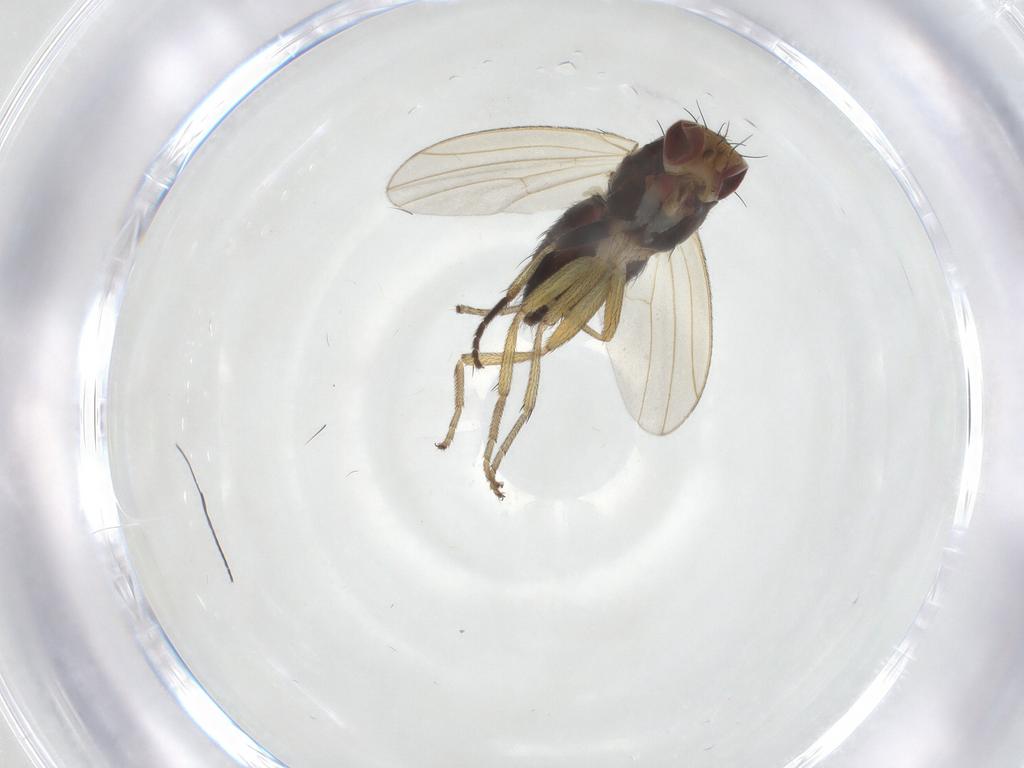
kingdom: Animalia
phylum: Arthropoda
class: Insecta
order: Diptera
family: Heleomyzidae
